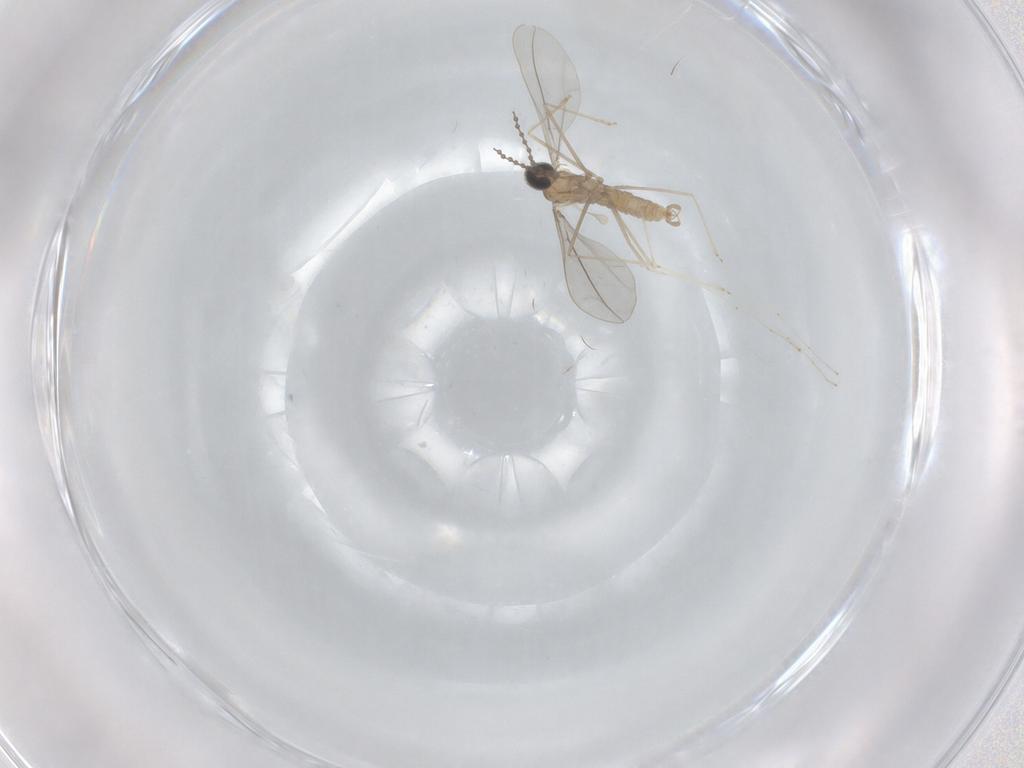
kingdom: Animalia
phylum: Arthropoda
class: Insecta
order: Diptera
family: Cecidomyiidae
